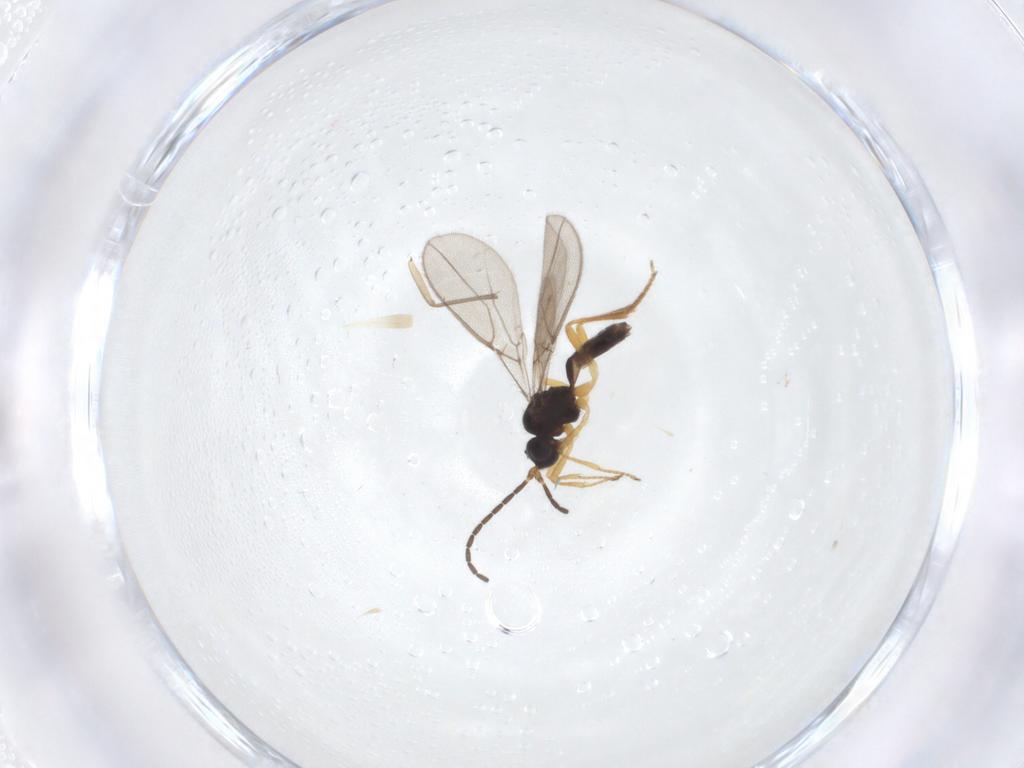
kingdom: Animalia
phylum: Arthropoda
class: Insecta
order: Hymenoptera
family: Braconidae
